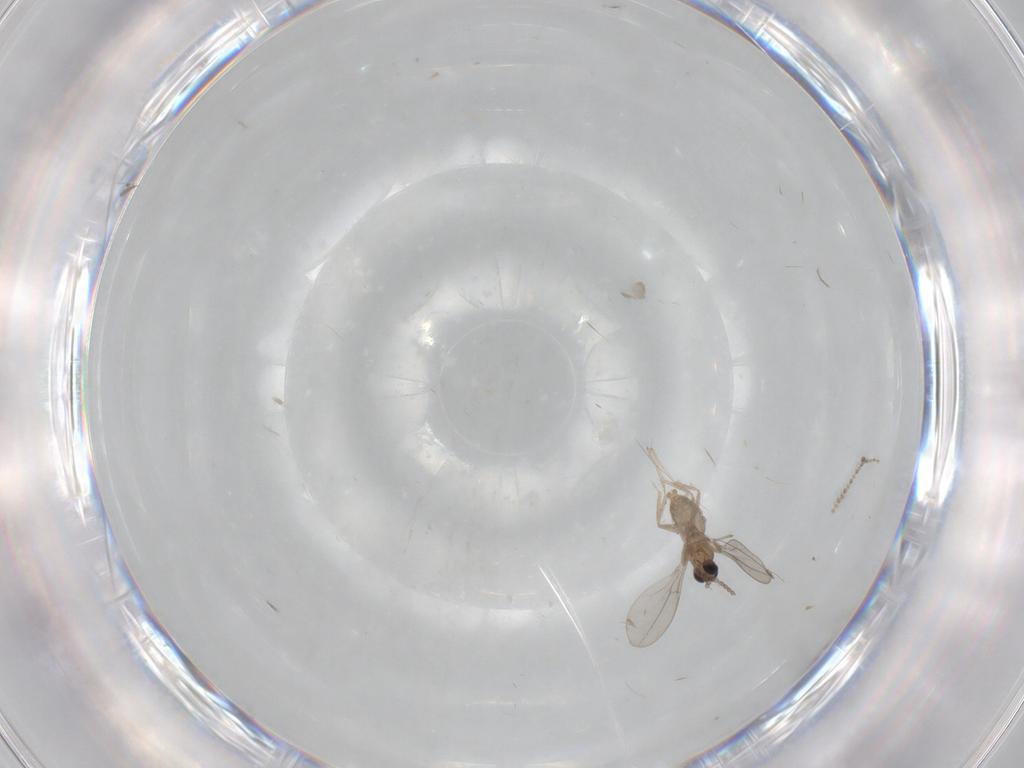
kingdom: Animalia
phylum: Arthropoda
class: Insecta
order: Diptera
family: Cecidomyiidae
